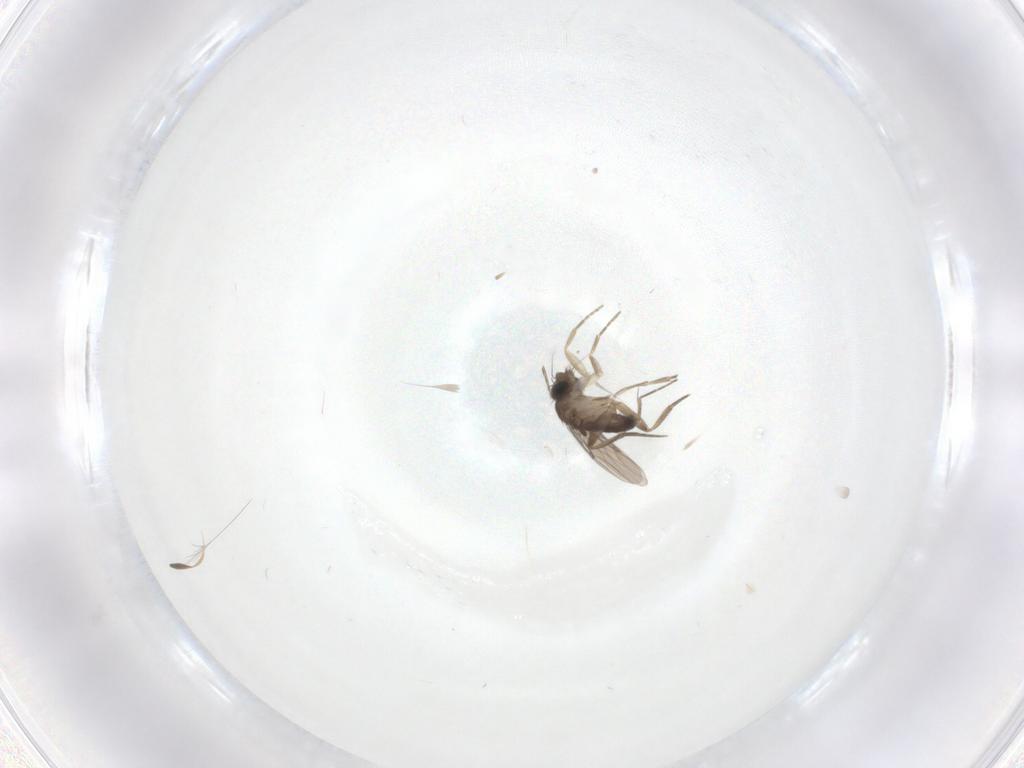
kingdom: Animalia
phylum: Arthropoda
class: Insecta
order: Diptera
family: Phoridae
